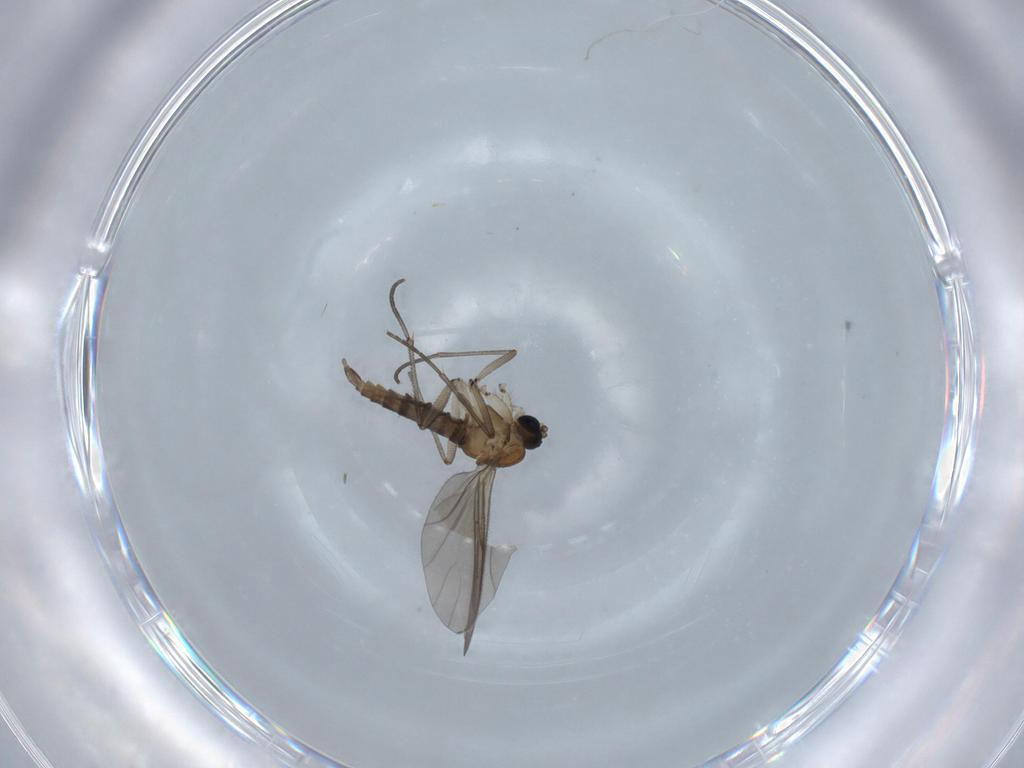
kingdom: Animalia
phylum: Arthropoda
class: Insecta
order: Diptera
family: Sciaridae
